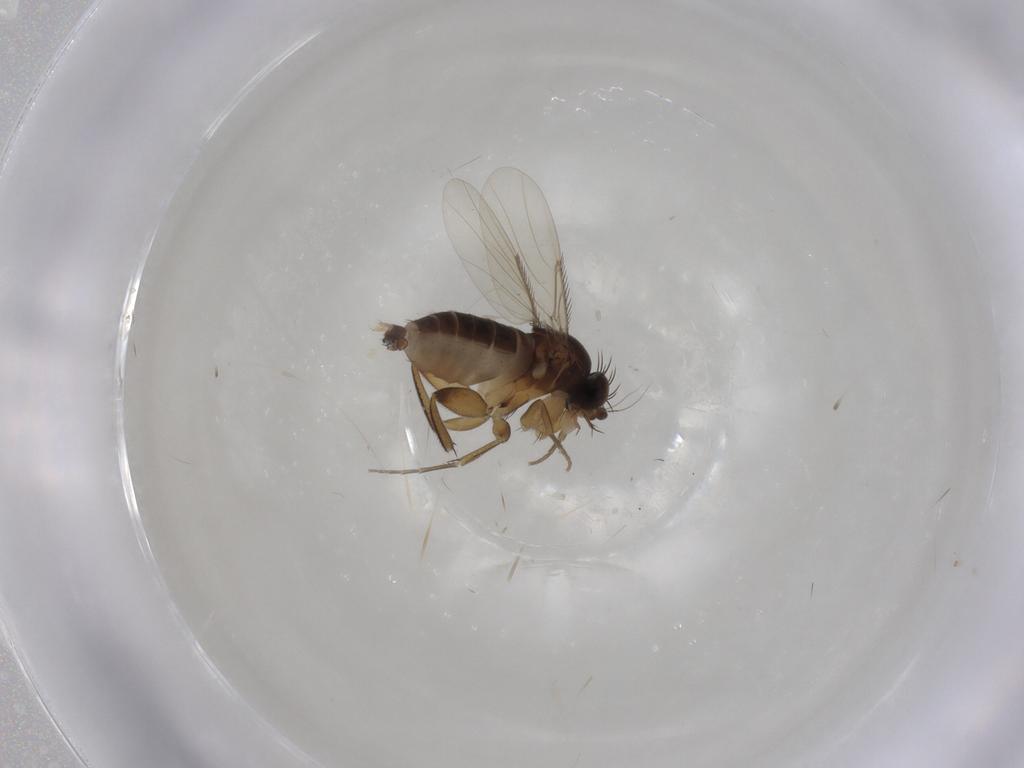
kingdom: Animalia
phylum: Arthropoda
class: Insecta
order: Diptera
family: Phoridae
